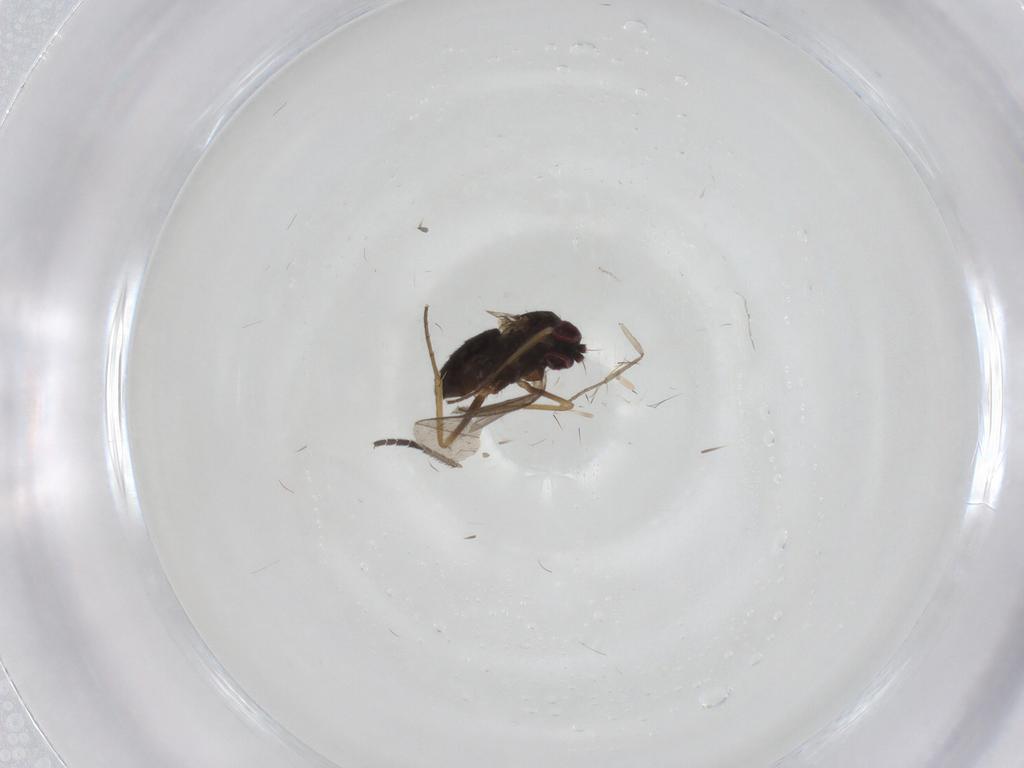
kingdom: Animalia
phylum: Arthropoda
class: Insecta
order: Diptera
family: Psychodidae
